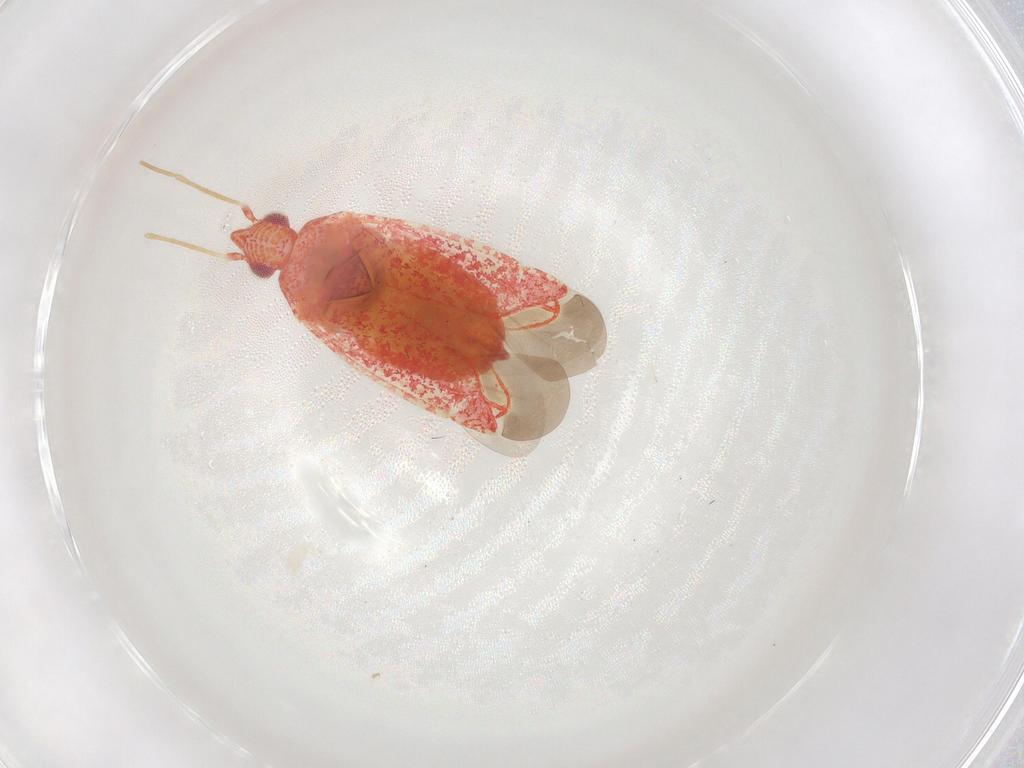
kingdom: Animalia
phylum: Arthropoda
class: Insecta
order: Hemiptera
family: Miridae
